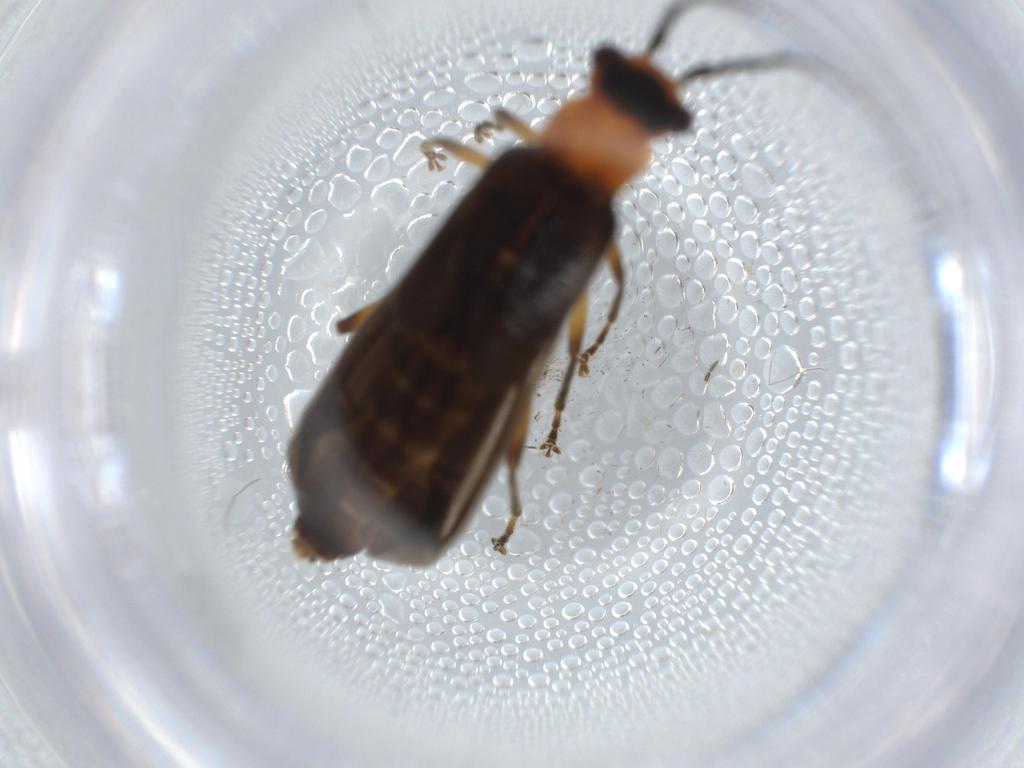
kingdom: Animalia
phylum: Arthropoda
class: Insecta
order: Coleoptera
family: Cantharidae
